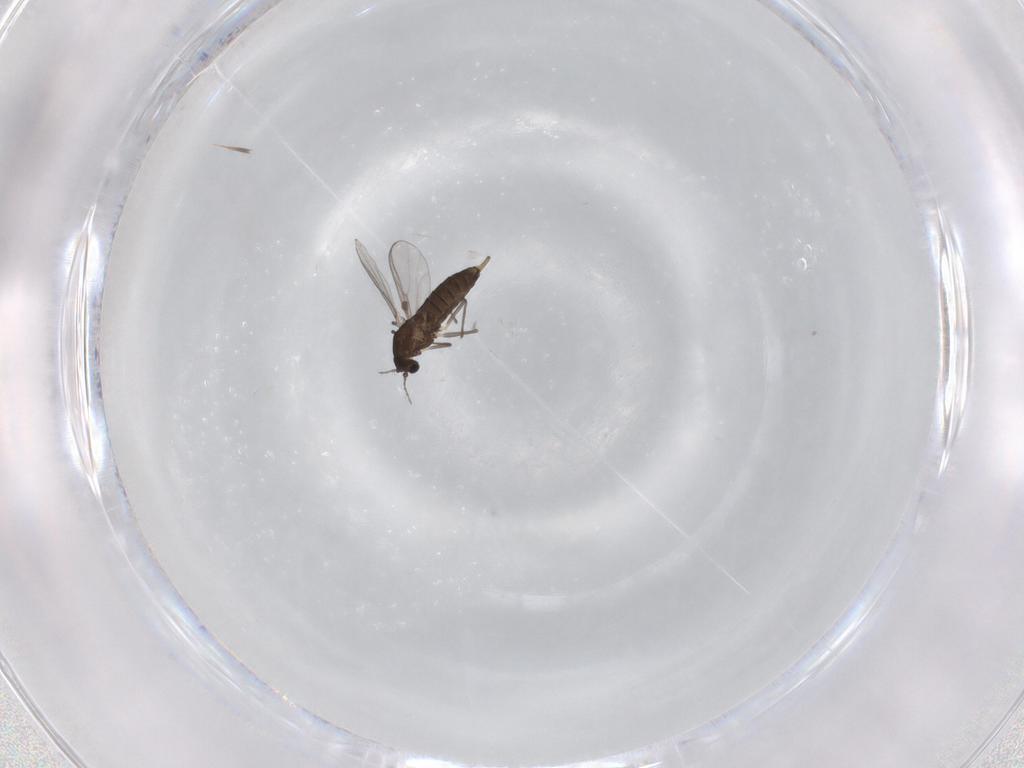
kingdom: Animalia
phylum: Arthropoda
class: Insecta
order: Diptera
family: Chironomidae
